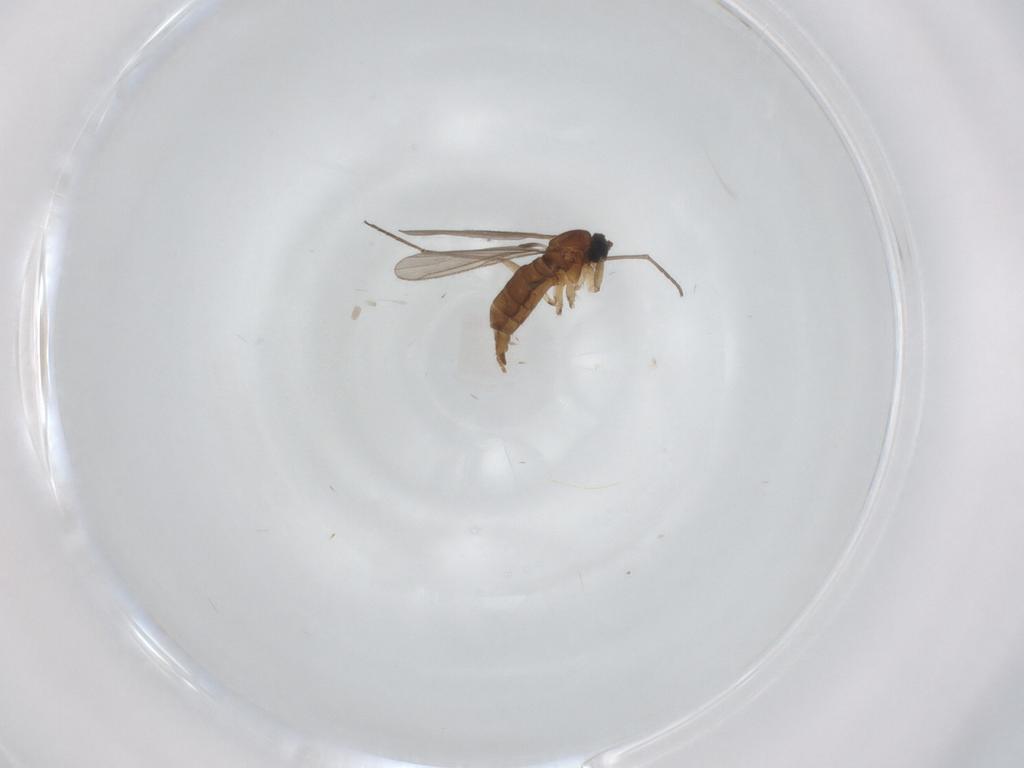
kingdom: Animalia
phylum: Arthropoda
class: Insecta
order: Diptera
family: Sciaridae
